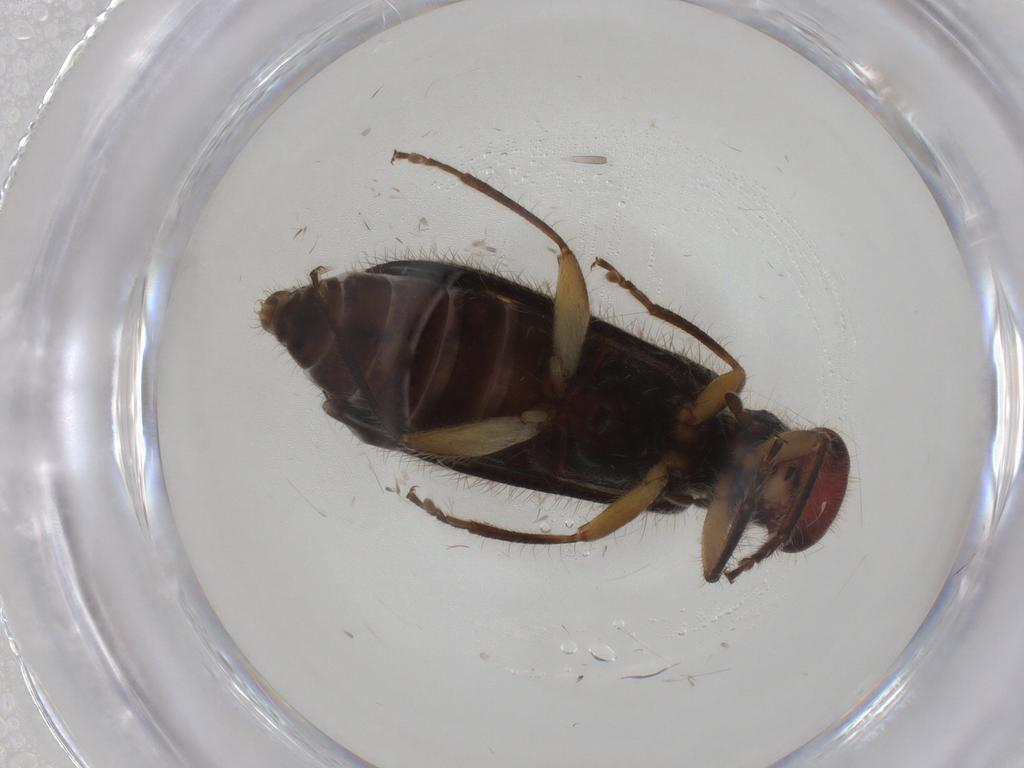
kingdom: Animalia
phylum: Arthropoda
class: Insecta
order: Coleoptera
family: Cleridae
